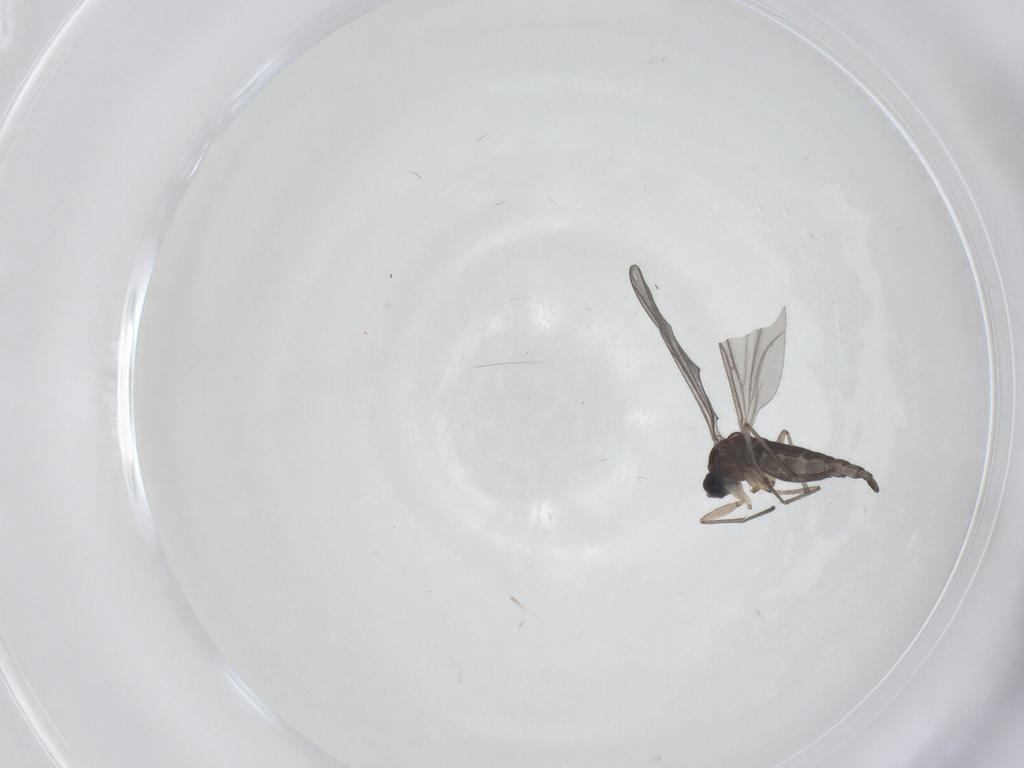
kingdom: Animalia
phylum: Arthropoda
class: Insecta
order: Diptera
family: Sciaridae
